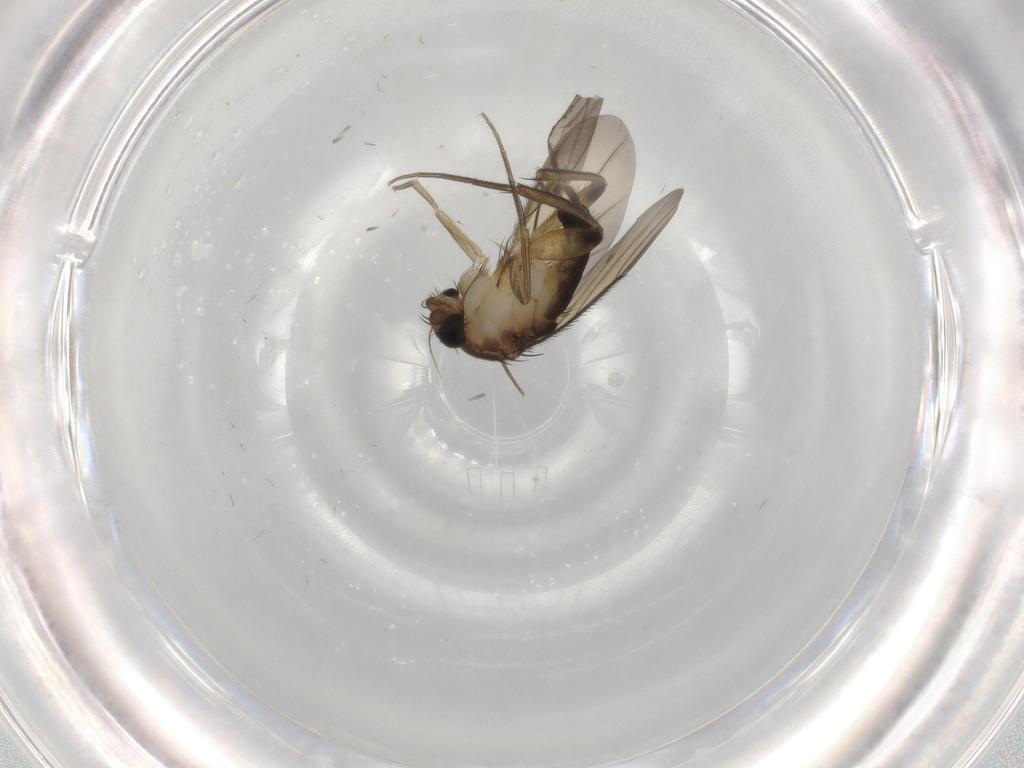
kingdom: Animalia
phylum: Arthropoda
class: Insecta
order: Diptera
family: Cecidomyiidae
